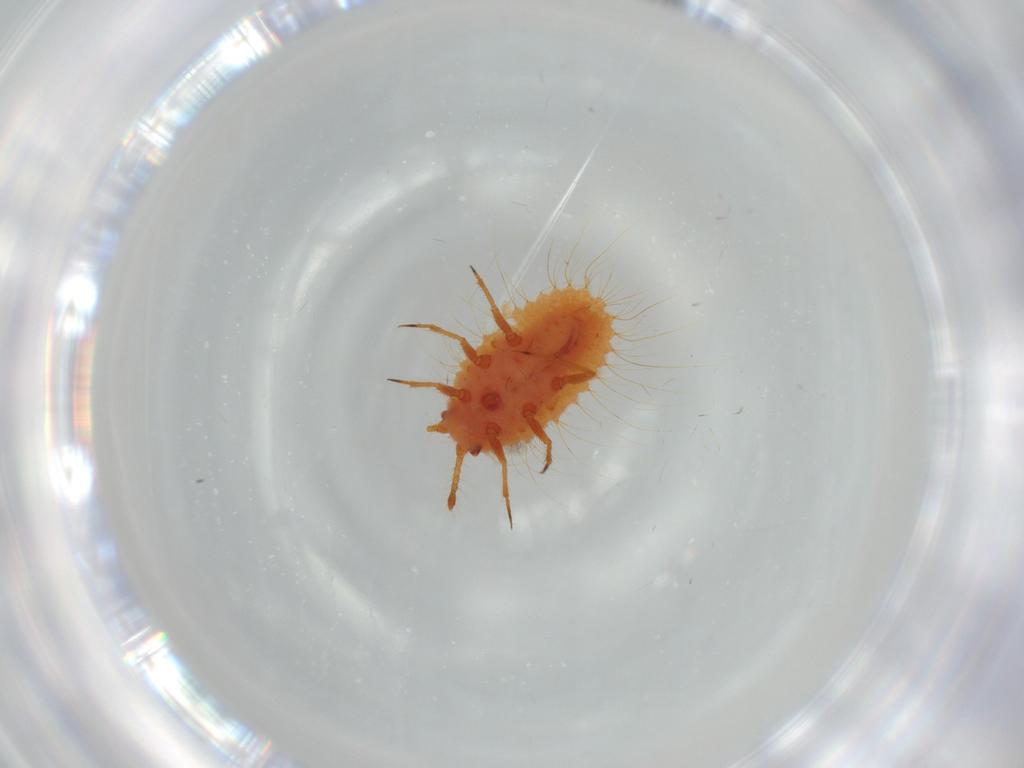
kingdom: Animalia
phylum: Arthropoda
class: Insecta
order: Hemiptera
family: Coccoidea_incertae_sedis
